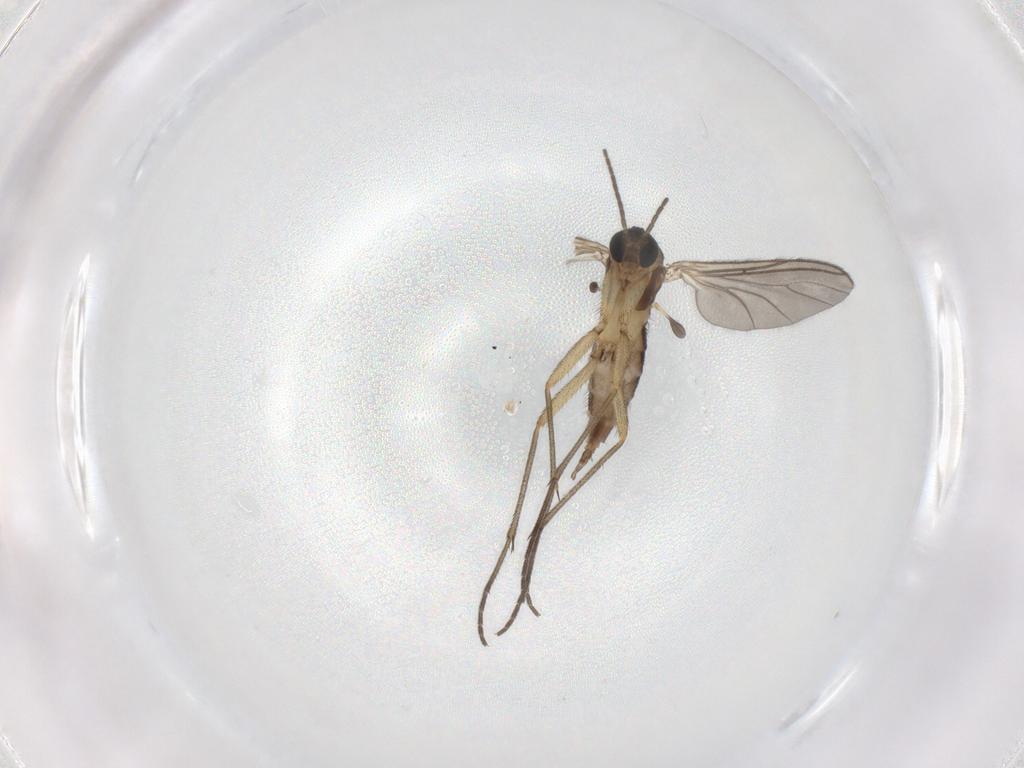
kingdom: Animalia
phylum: Arthropoda
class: Insecta
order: Diptera
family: Sciaridae
